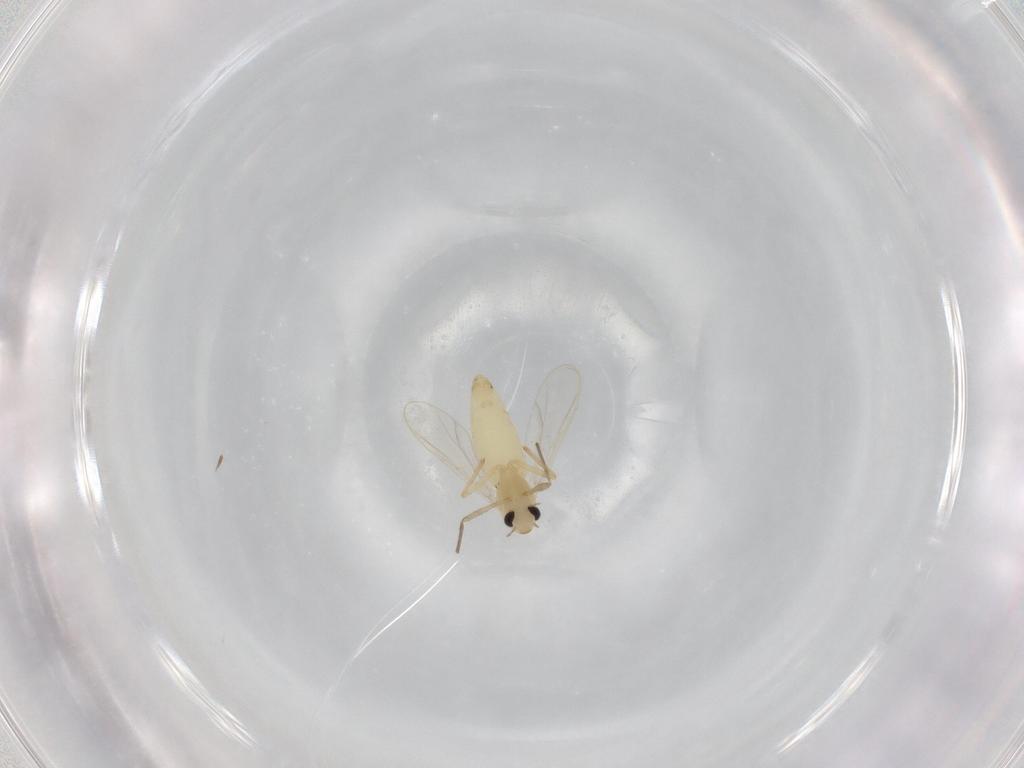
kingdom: Animalia
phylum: Arthropoda
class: Insecta
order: Diptera
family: Chironomidae
